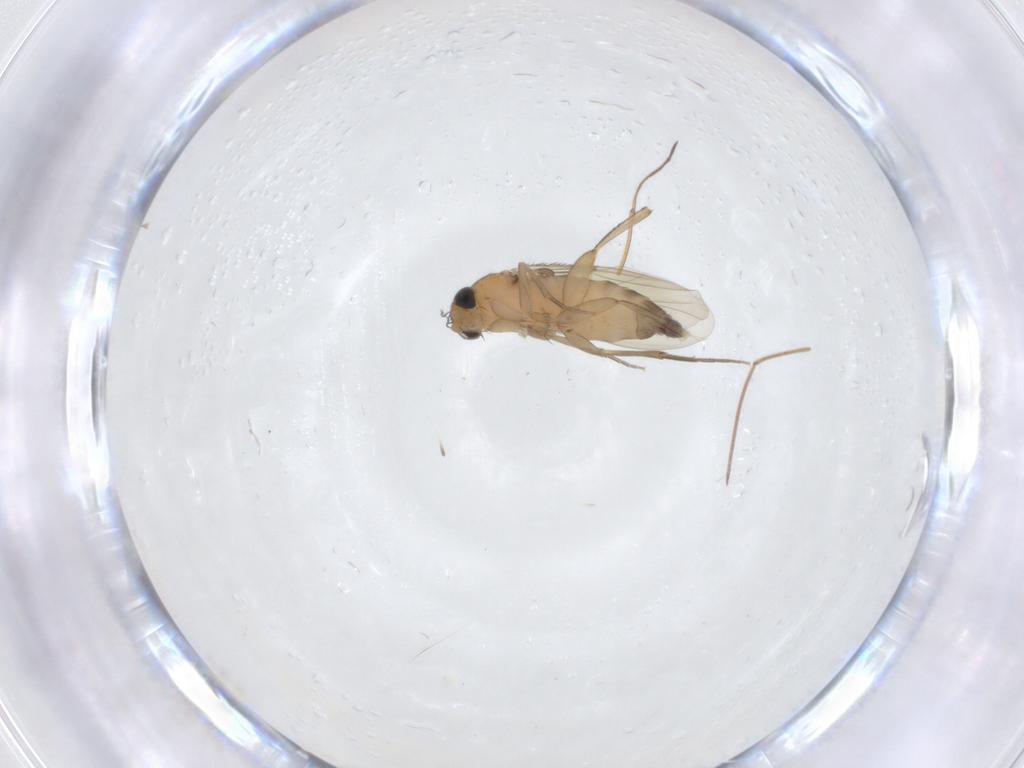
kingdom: Animalia
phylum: Arthropoda
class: Insecta
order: Diptera
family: Phoridae
